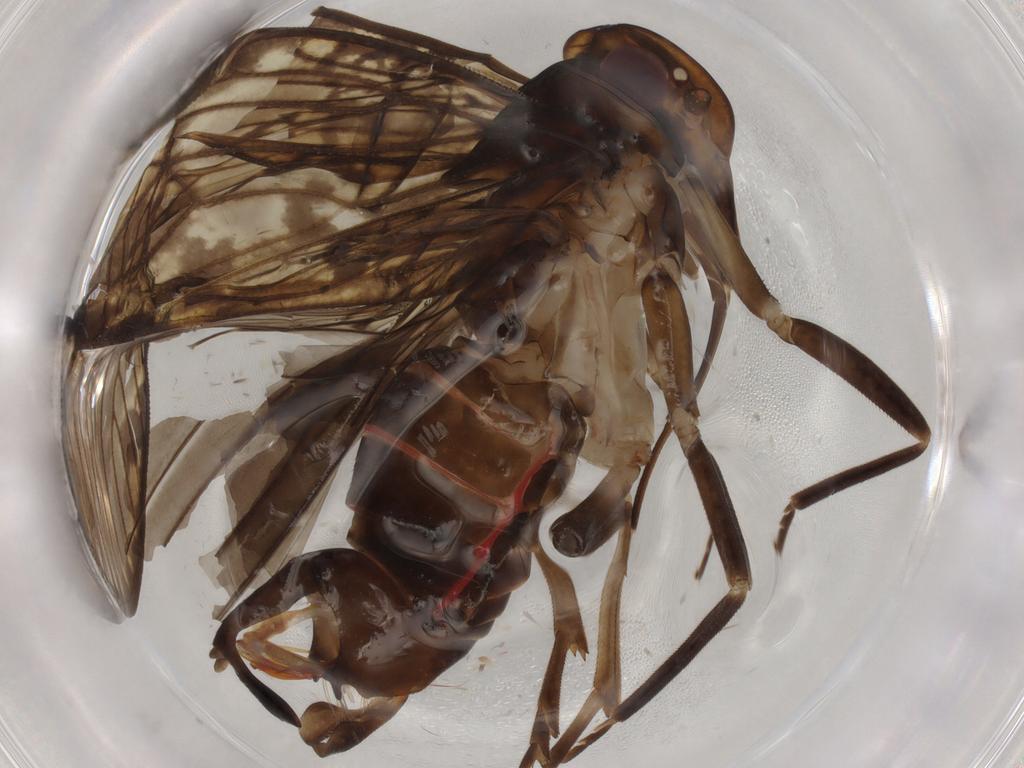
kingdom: Animalia
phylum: Arthropoda
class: Insecta
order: Hemiptera
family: Cixiidae
